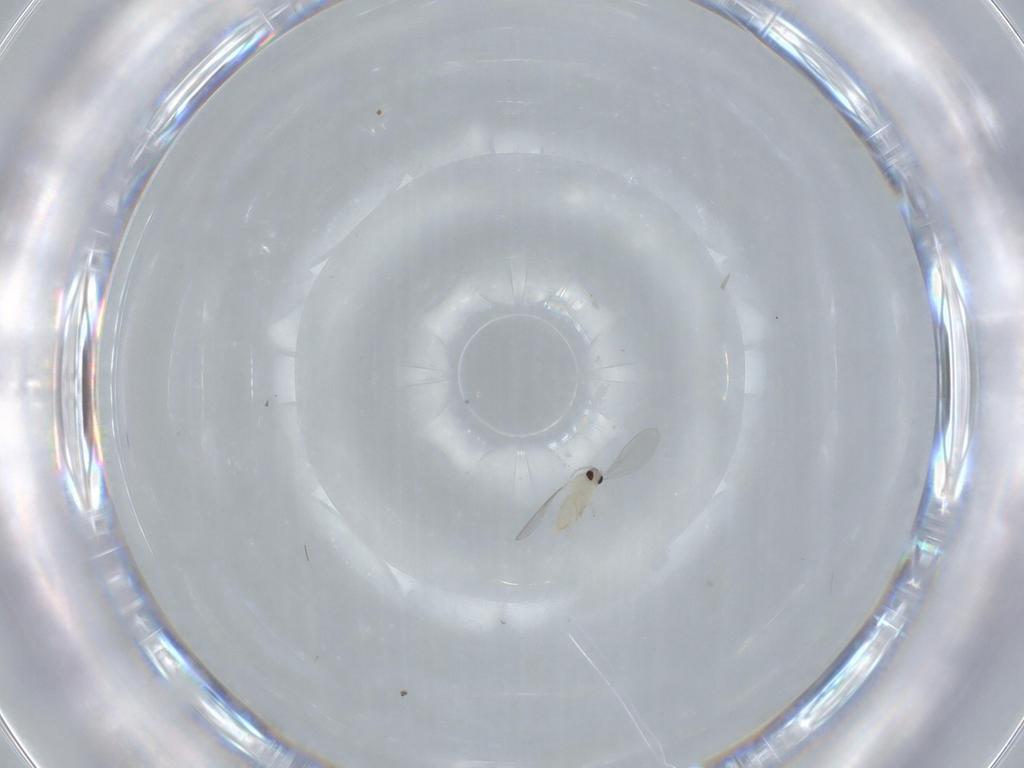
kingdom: Animalia
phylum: Arthropoda
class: Insecta
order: Diptera
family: Cecidomyiidae
